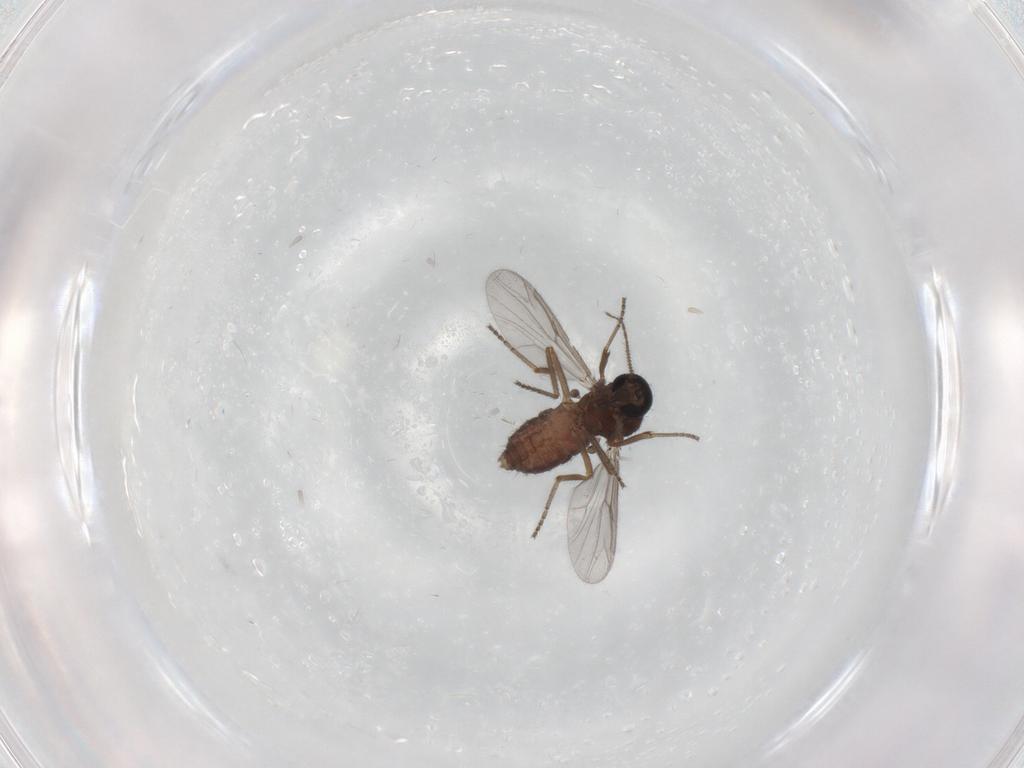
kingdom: Animalia
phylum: Arthropoda
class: Insecta
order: Diptera
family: Ceratopogonidae
